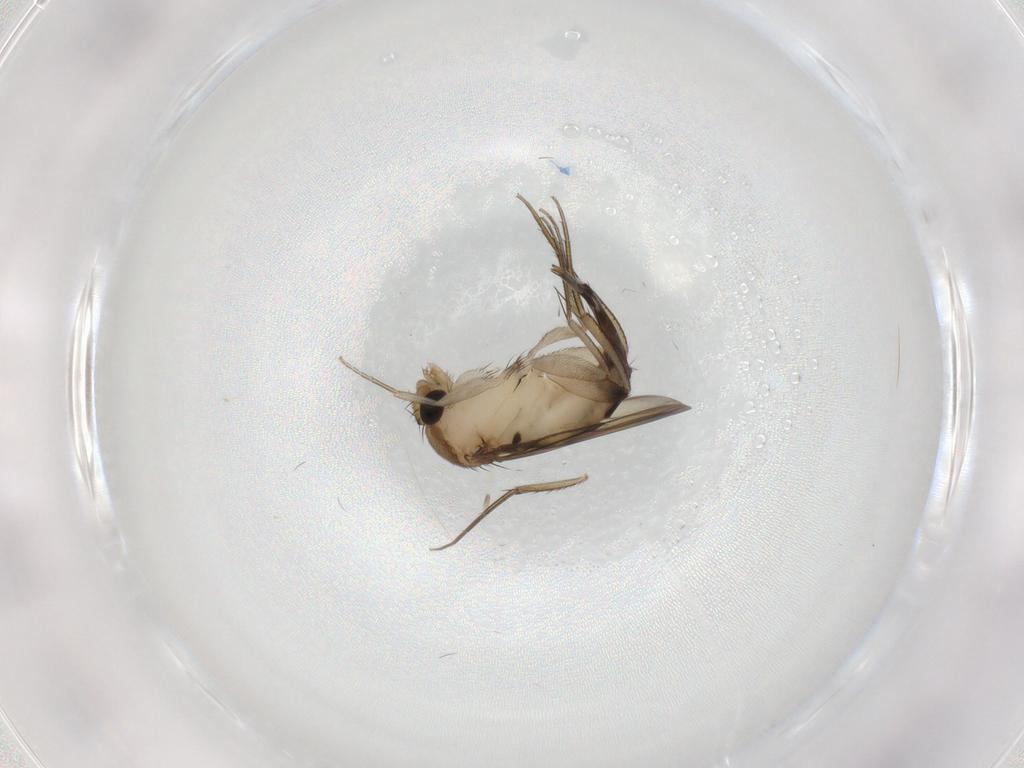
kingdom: Animalia
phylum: Arthropoda
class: Insecta
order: Diptera
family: Phoridae
